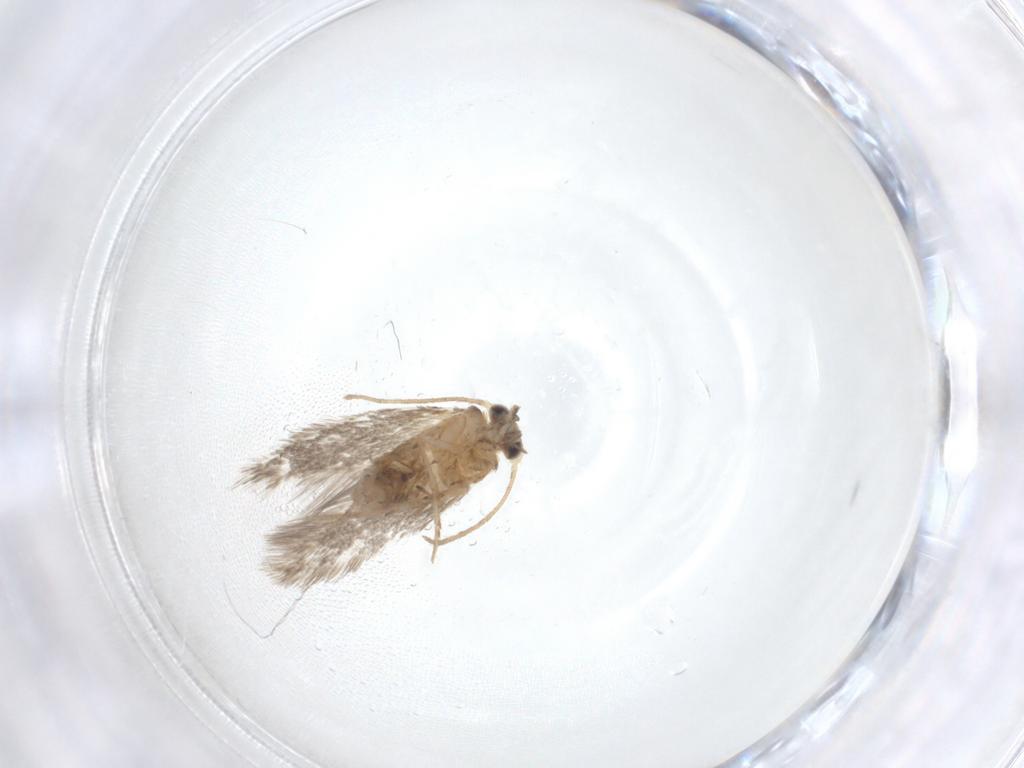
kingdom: Animalia
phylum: Arthropoda
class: Insecta
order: Lepidoptera
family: Nepticulidae
